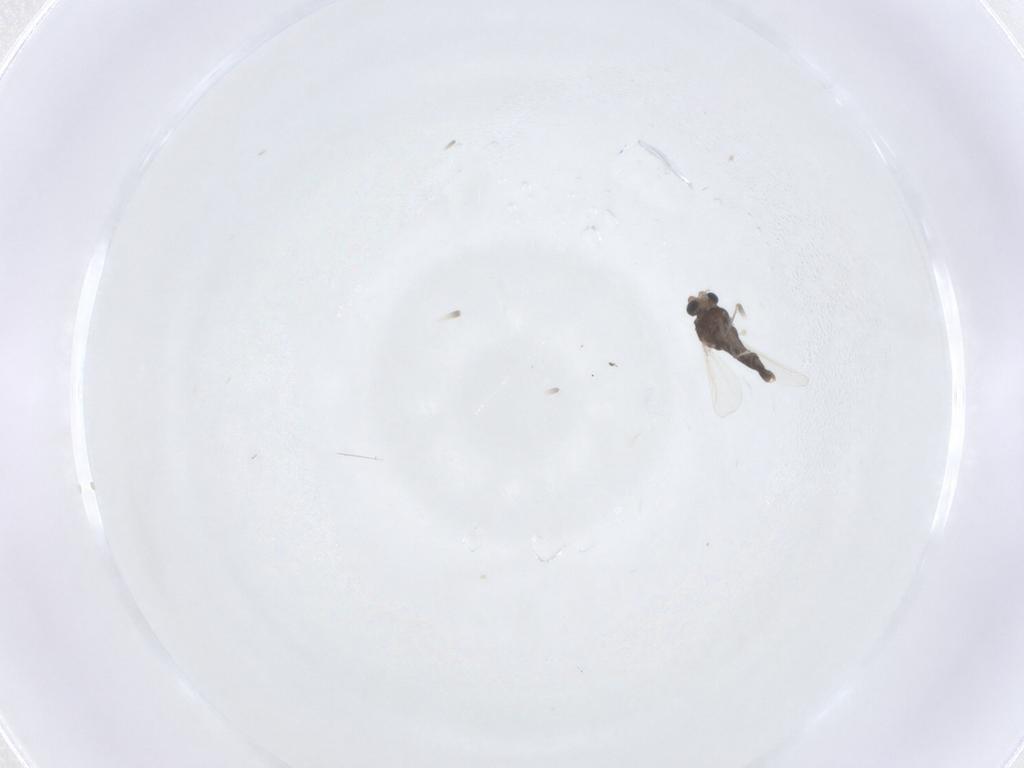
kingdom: Animalia
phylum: Arthropoda
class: Insecta
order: Diptera
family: Chironomidae
